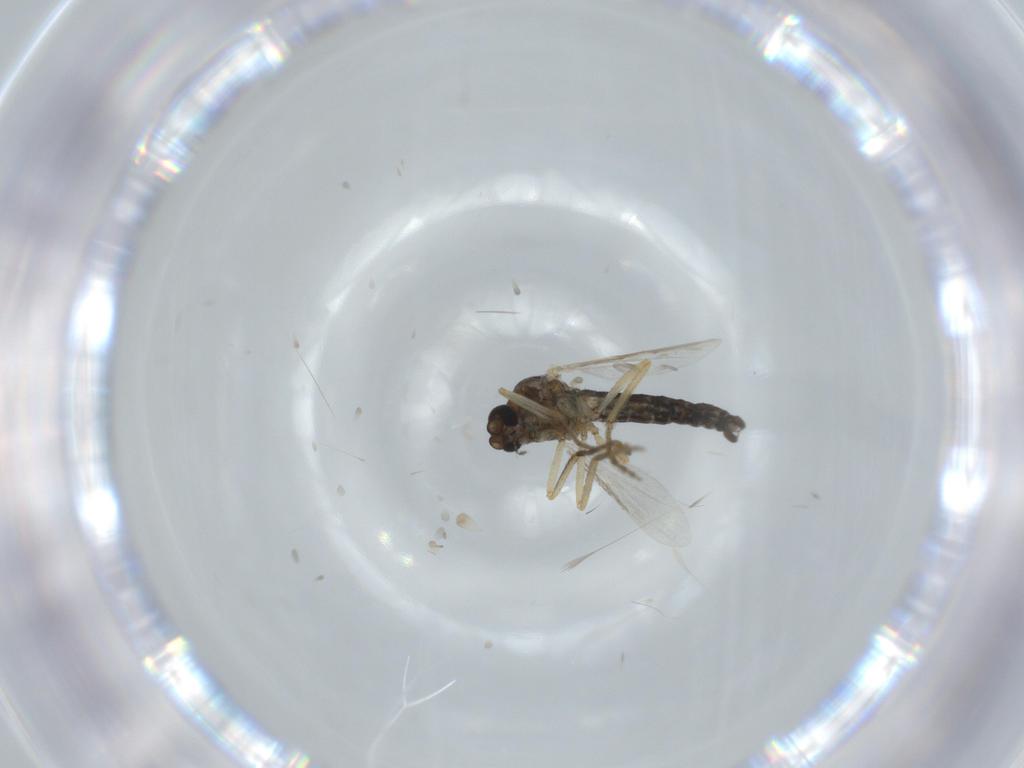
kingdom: Animalia
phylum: Arthropoda
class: Insecta
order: Diptera
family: Ceratopogonidae
